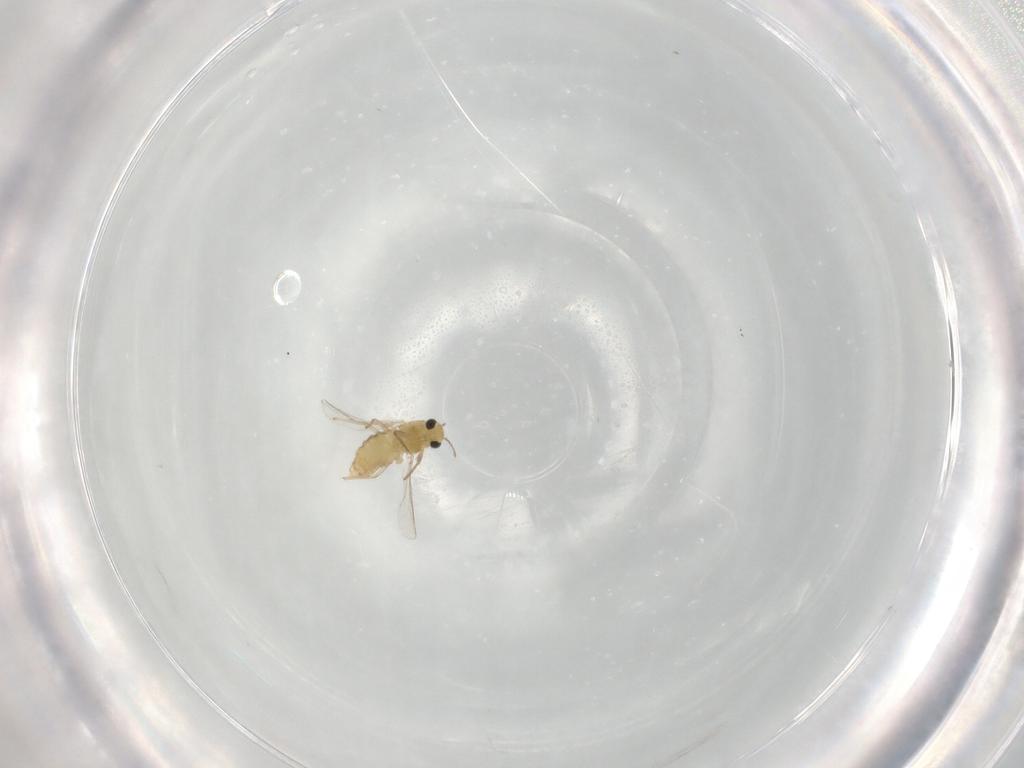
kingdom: Animalia
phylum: Arthropoda
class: Insecta
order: Diptera
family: Chironomidae
